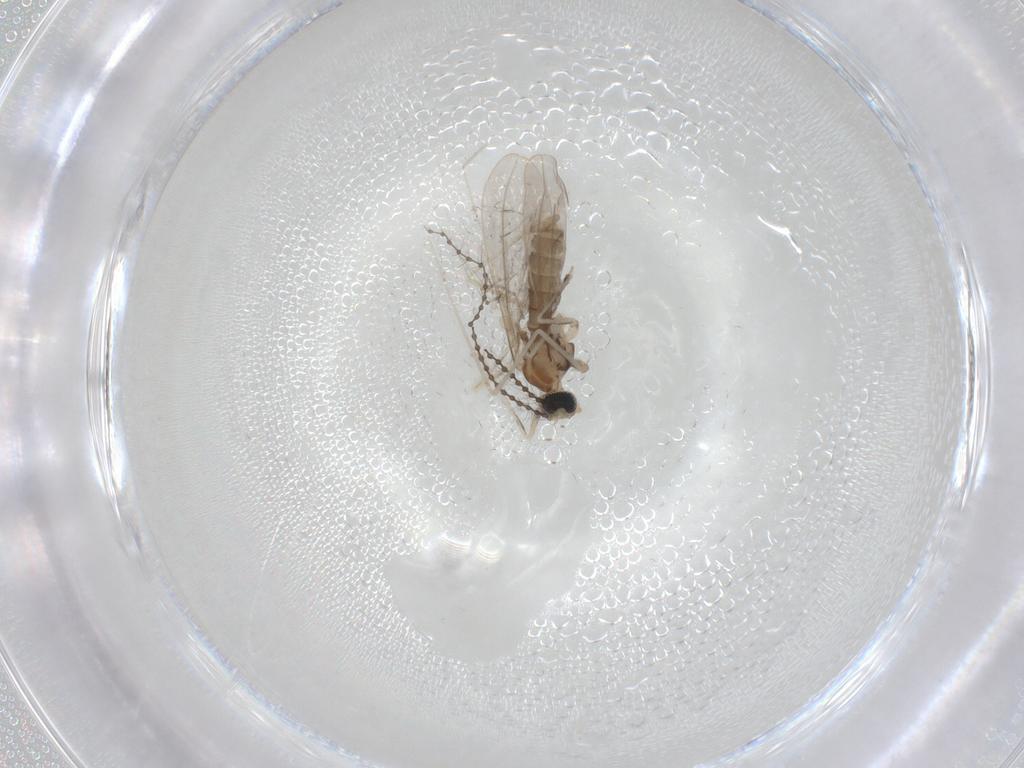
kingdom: Animalia
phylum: Arthropoda
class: Insecta
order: Diptera
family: Cecidomyiidae
